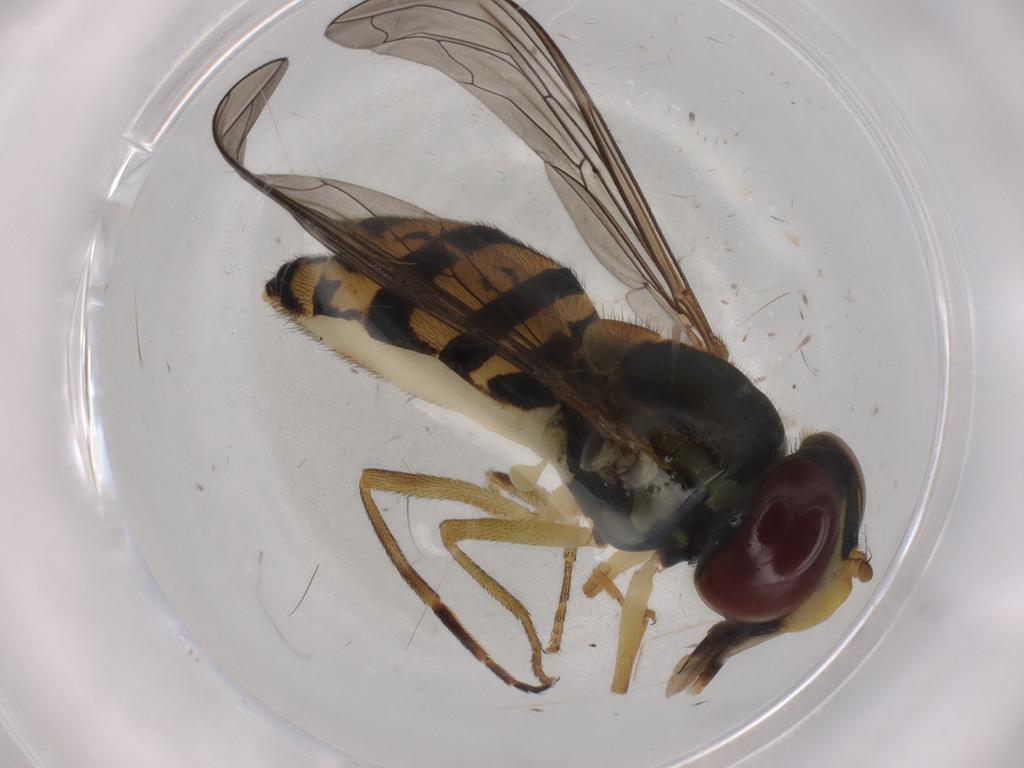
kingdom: Animalia
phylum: Arthropoda
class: Insecta
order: Diptera
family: Syrphidae
